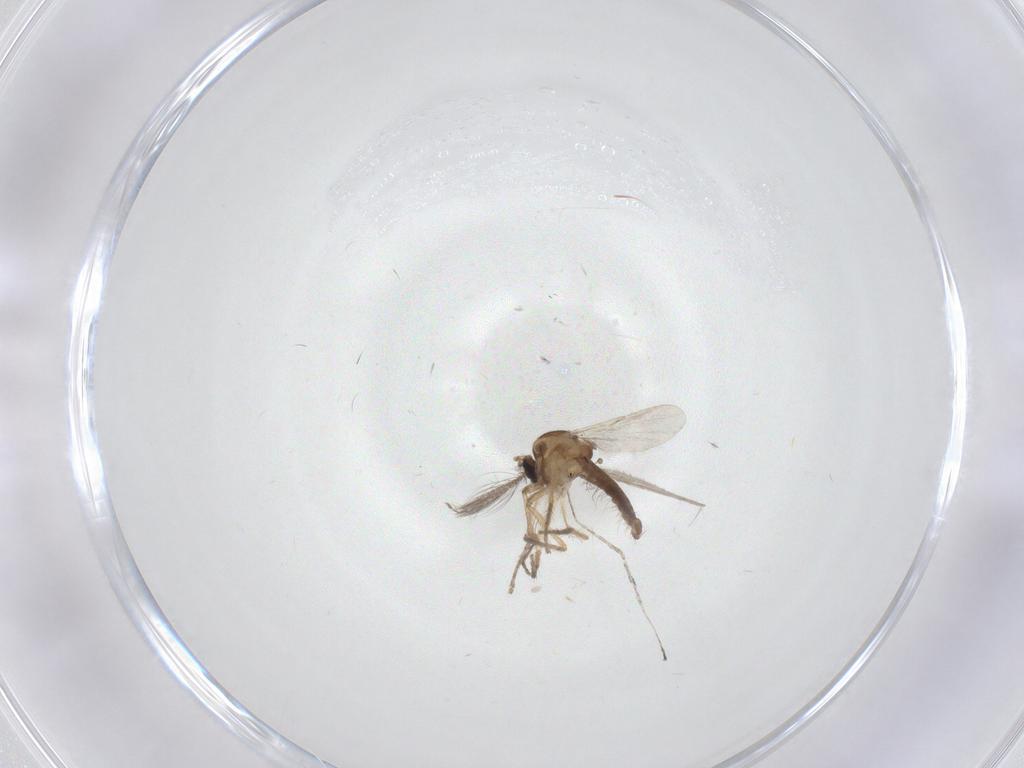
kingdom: Animalia
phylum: Arthropoda
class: Insecta
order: Diptera
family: Ceratopogonidae
